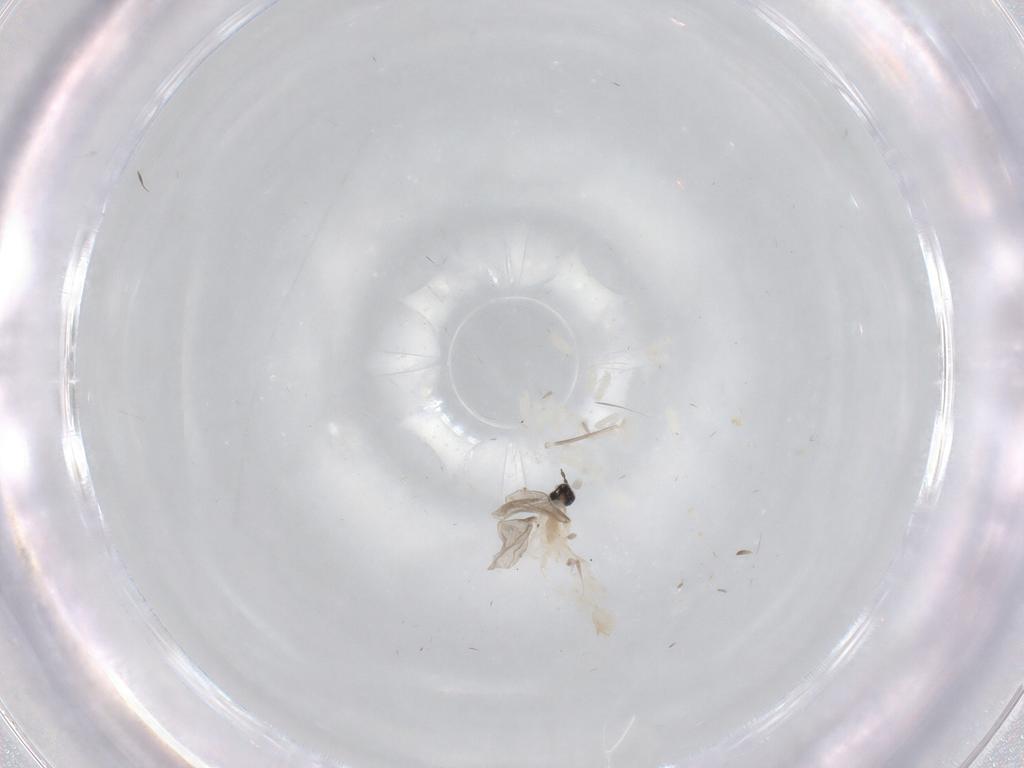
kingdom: Animalia
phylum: Arthropoda
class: Insecta
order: Diptera
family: Cecidomyiidae
